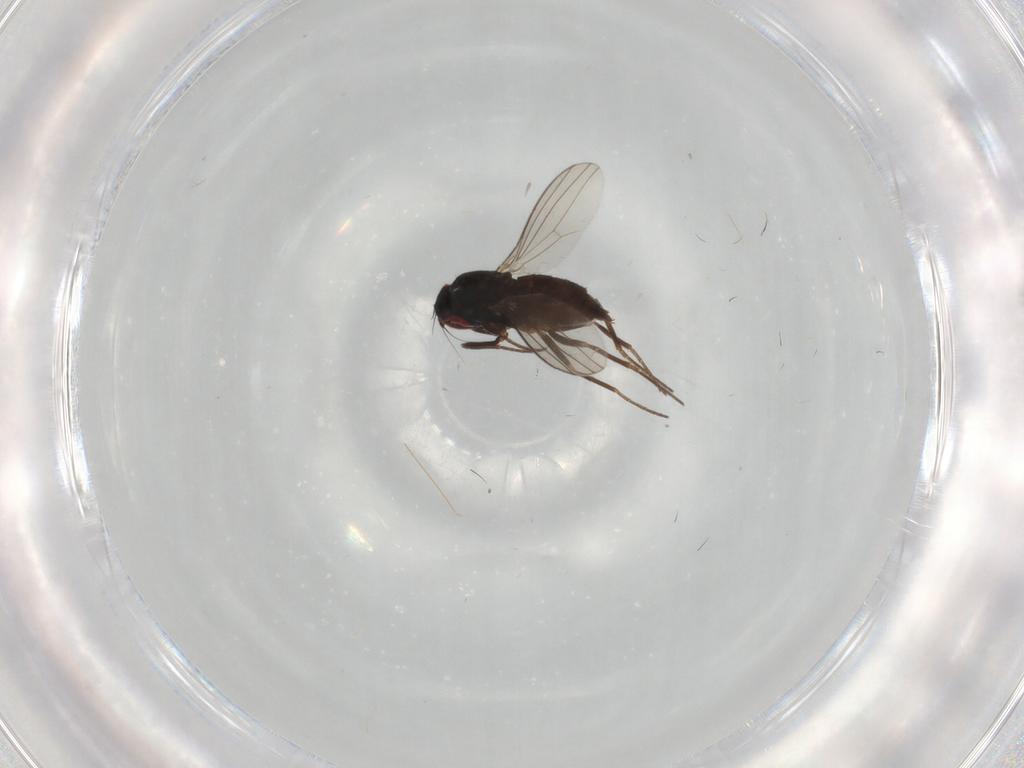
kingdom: Animalia
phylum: Arthropoda
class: Insecta
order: Diptera
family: Dolichopodidae
